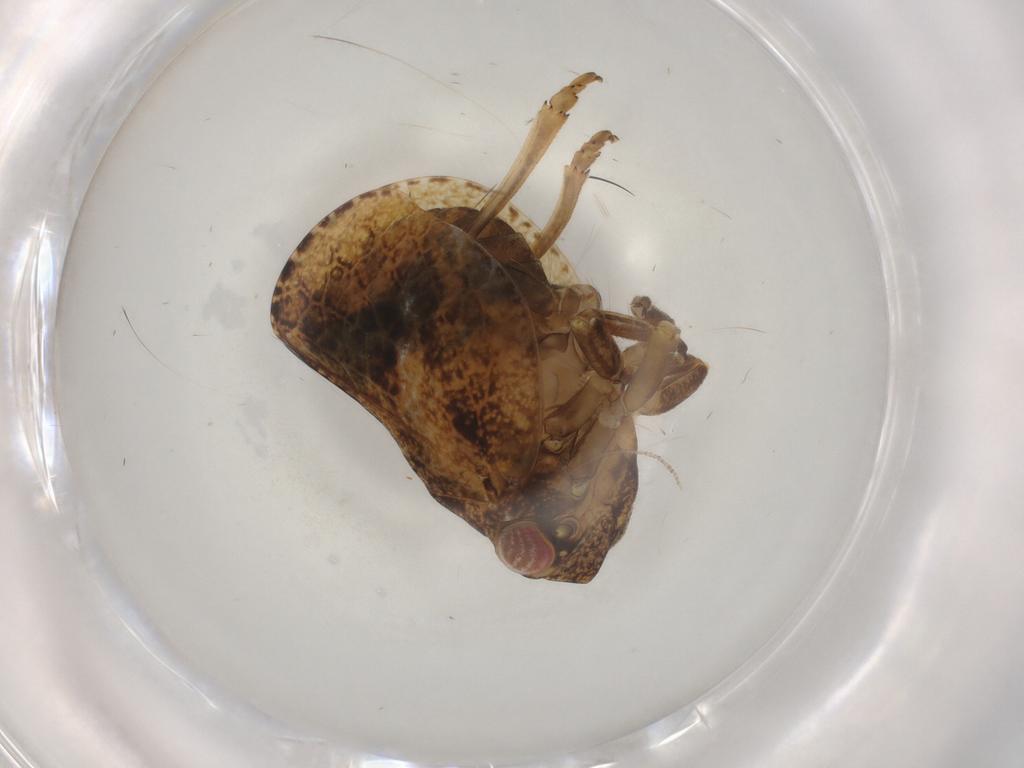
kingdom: Animalia
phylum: Arthropoda
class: Insecta
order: Hemiptera
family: Acanaloniidae
